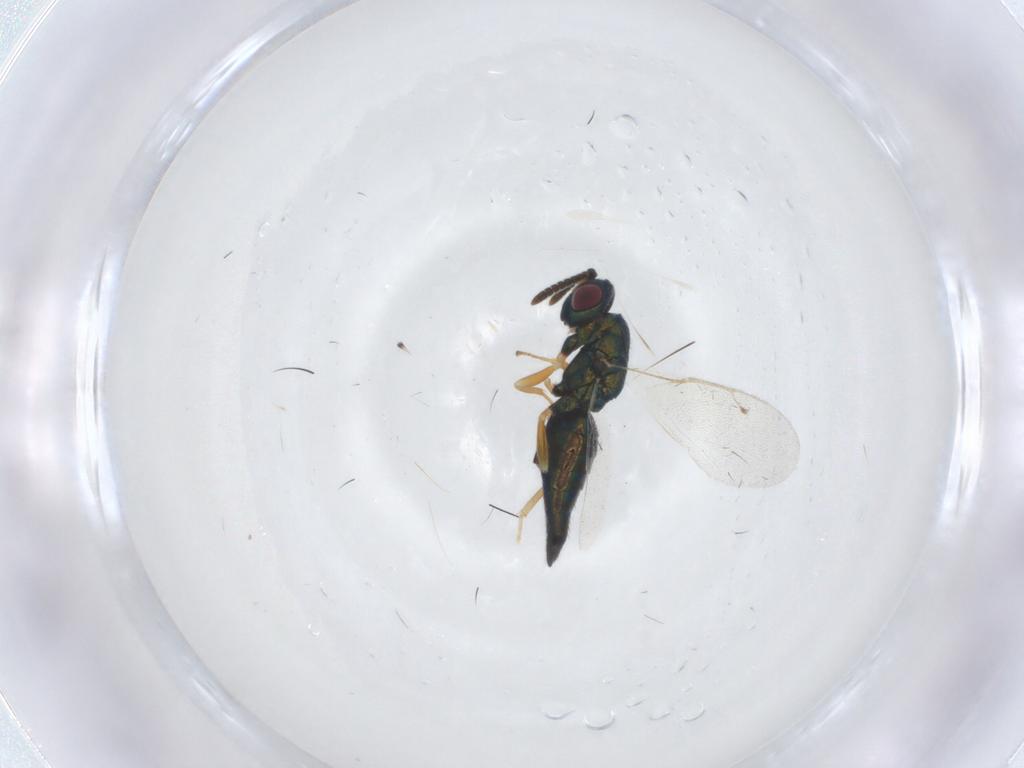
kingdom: Animalia
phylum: Arthropoda
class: Insecta
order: Hymenoptera
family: Pteromalidae
